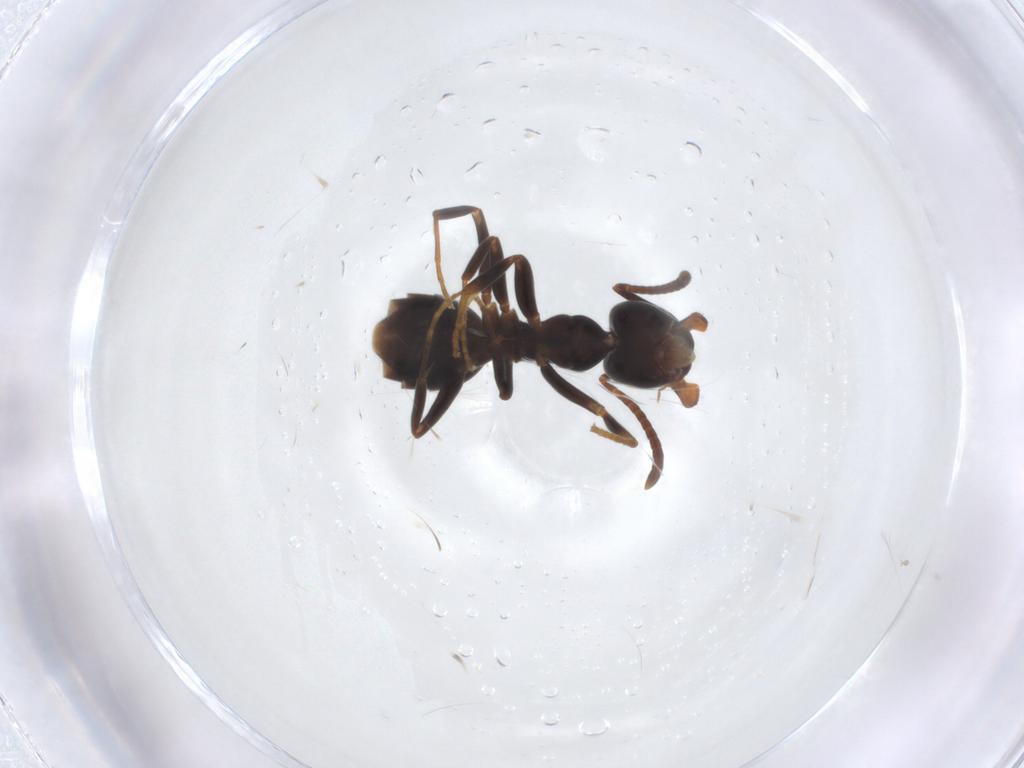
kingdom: Animalia
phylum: Arthropoda
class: Insecta
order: Hymenoptera
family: Formicidae
